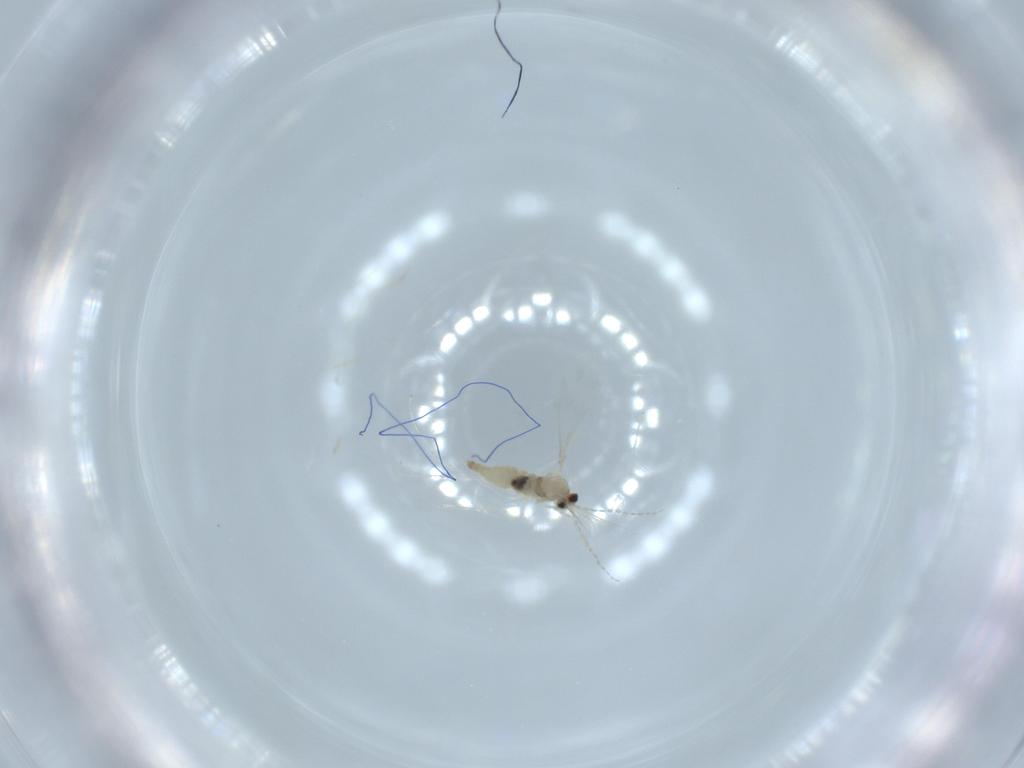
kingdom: Animalia
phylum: Arthropoda
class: Insecta
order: Diptera
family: Cecidomyiidae
